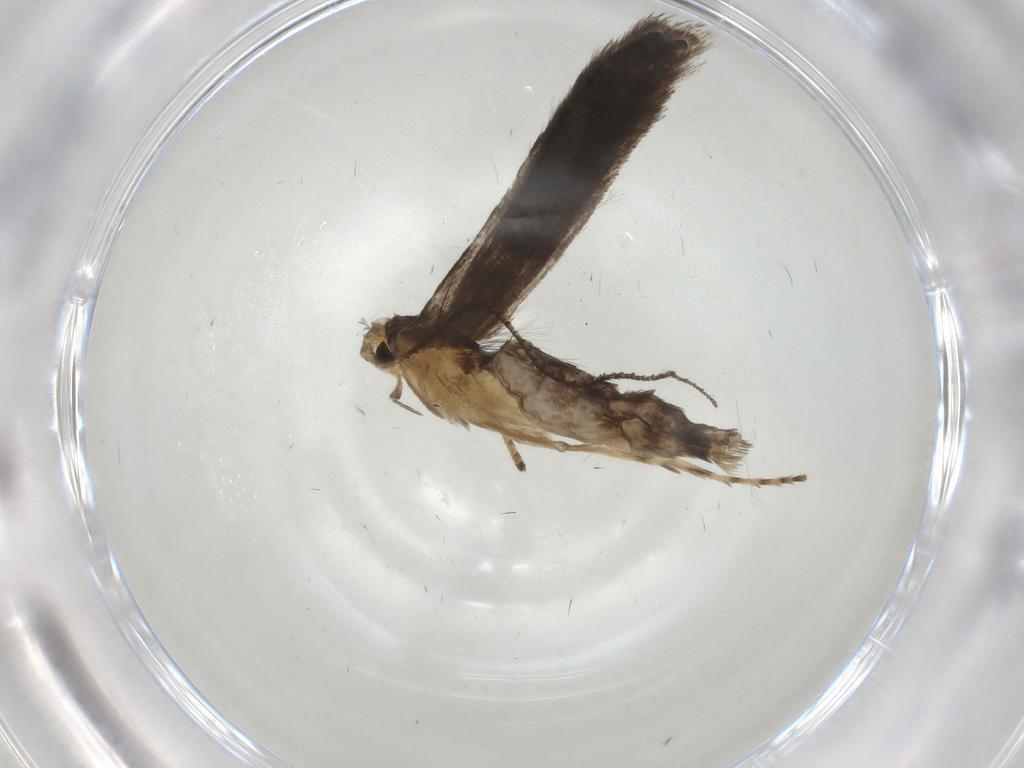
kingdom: Animalia
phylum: Arthropoda
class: Insecta
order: Lepidoptera
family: Elachistidae
